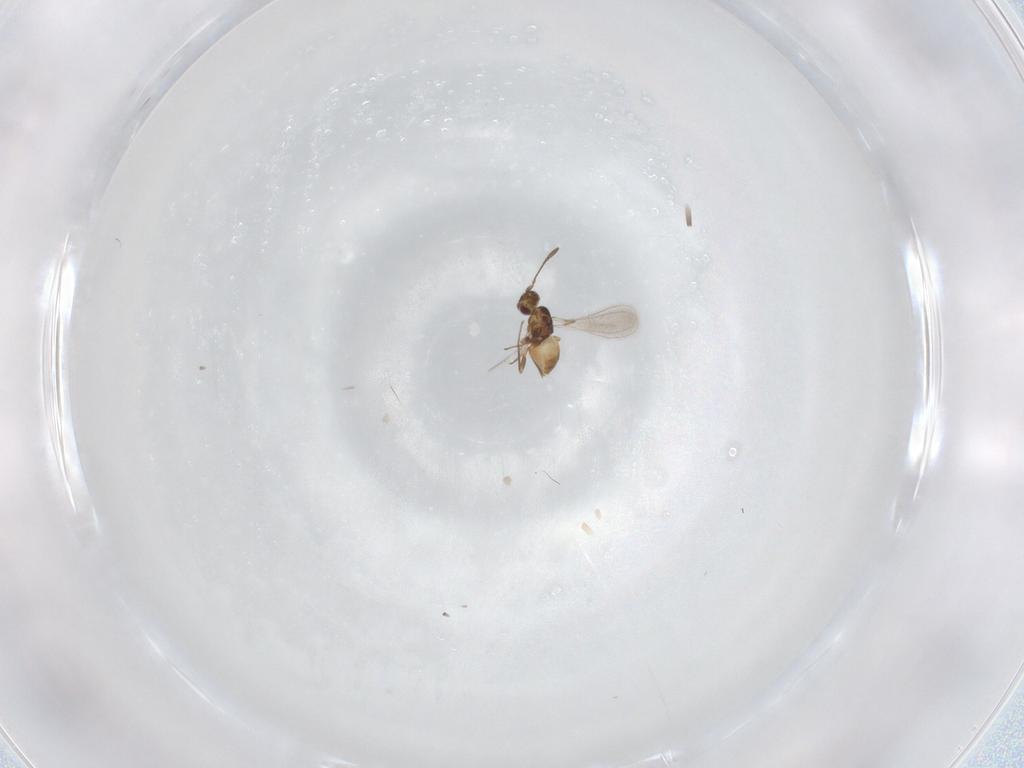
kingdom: Animalia
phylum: Arthropoda
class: Insecta
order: Hymenoptera
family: Mymaridae
